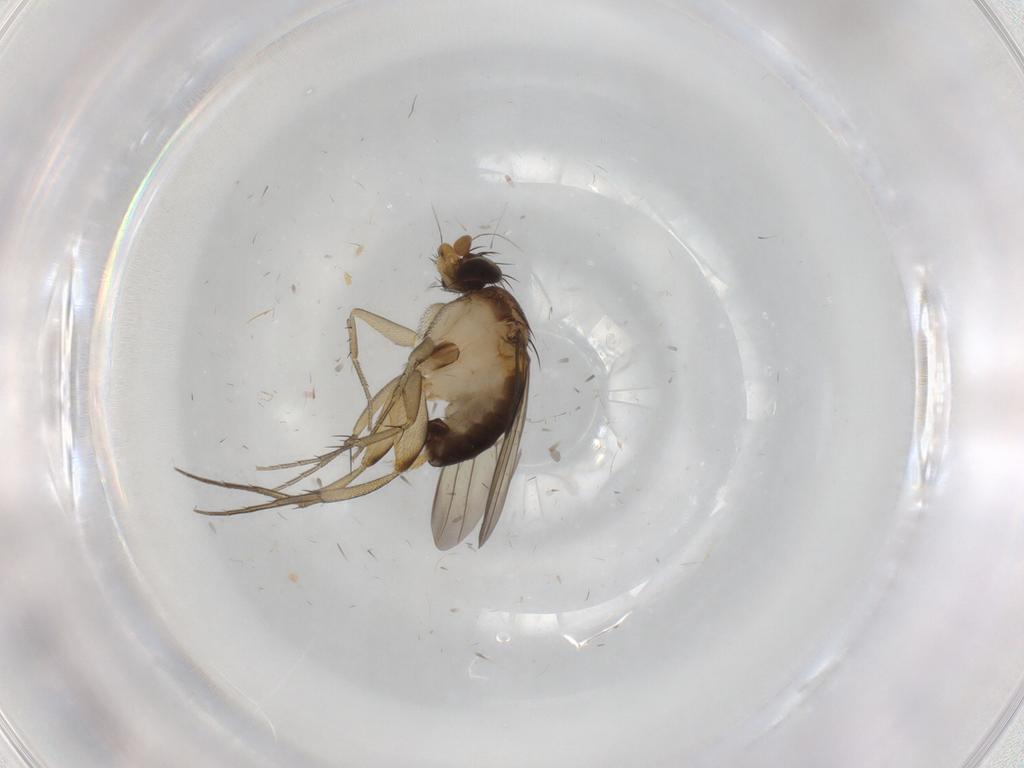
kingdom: Animalia
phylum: Arthropoda
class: Insecta
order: Diptera
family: Phoridae
